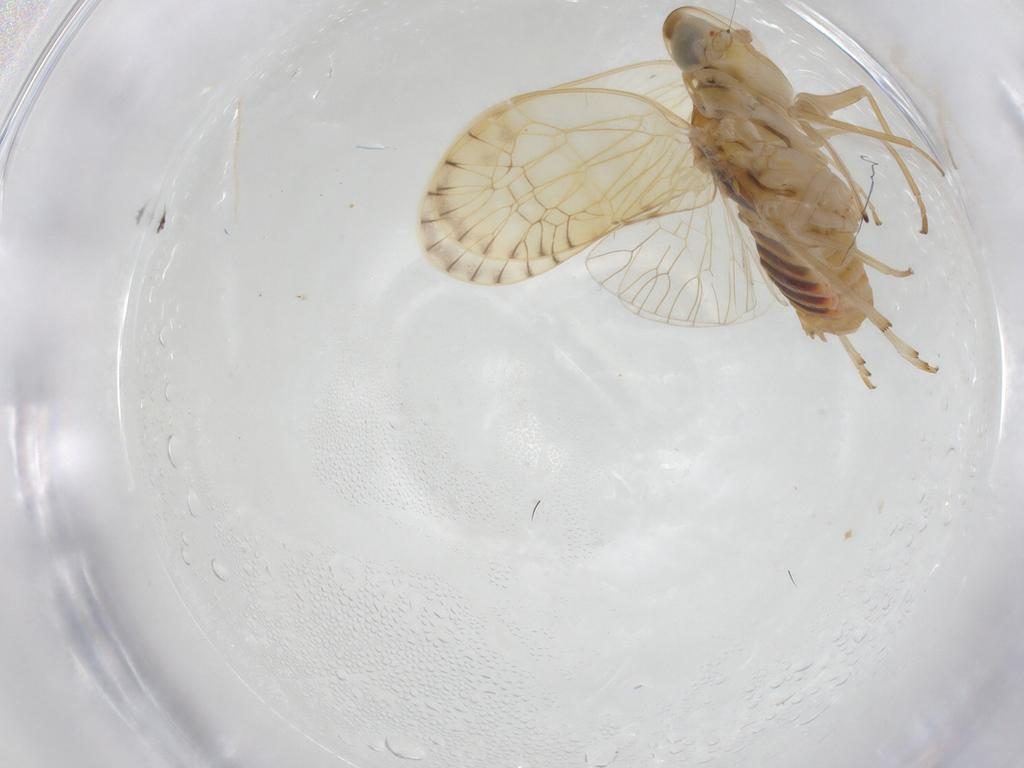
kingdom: Animalia
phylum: Arthropoda
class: Insecta
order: Hemiptera
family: Kinnaridae
